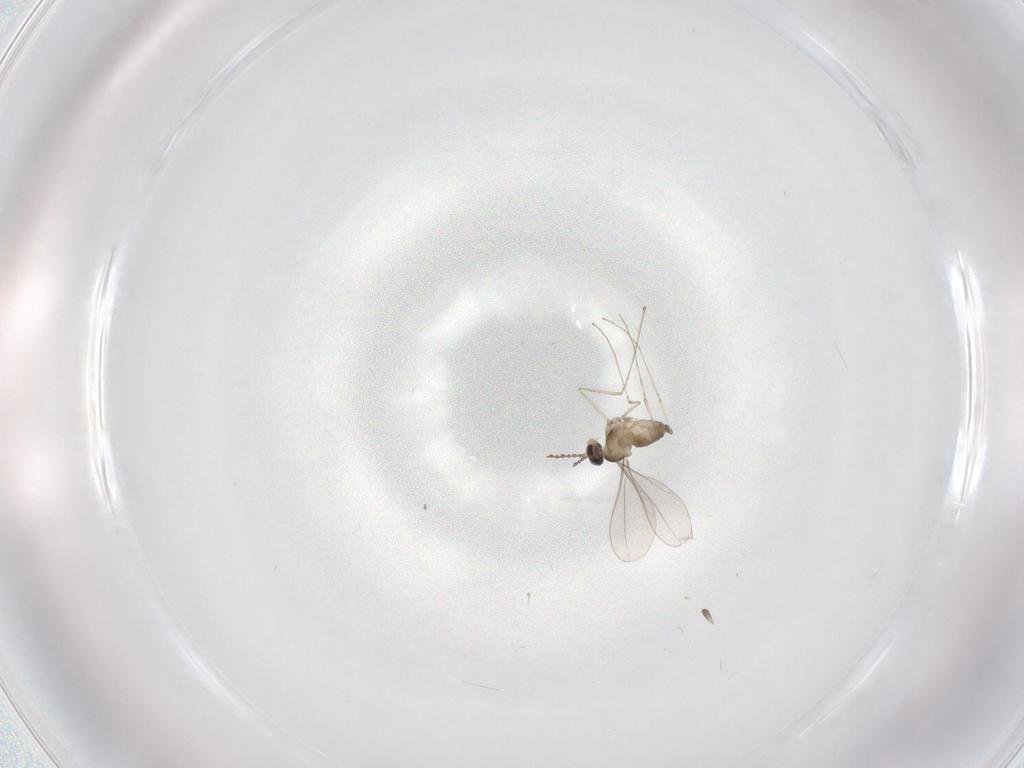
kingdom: Animalia
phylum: Arthropoda
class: Insecta
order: Diptera
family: Cecidomyiidae
